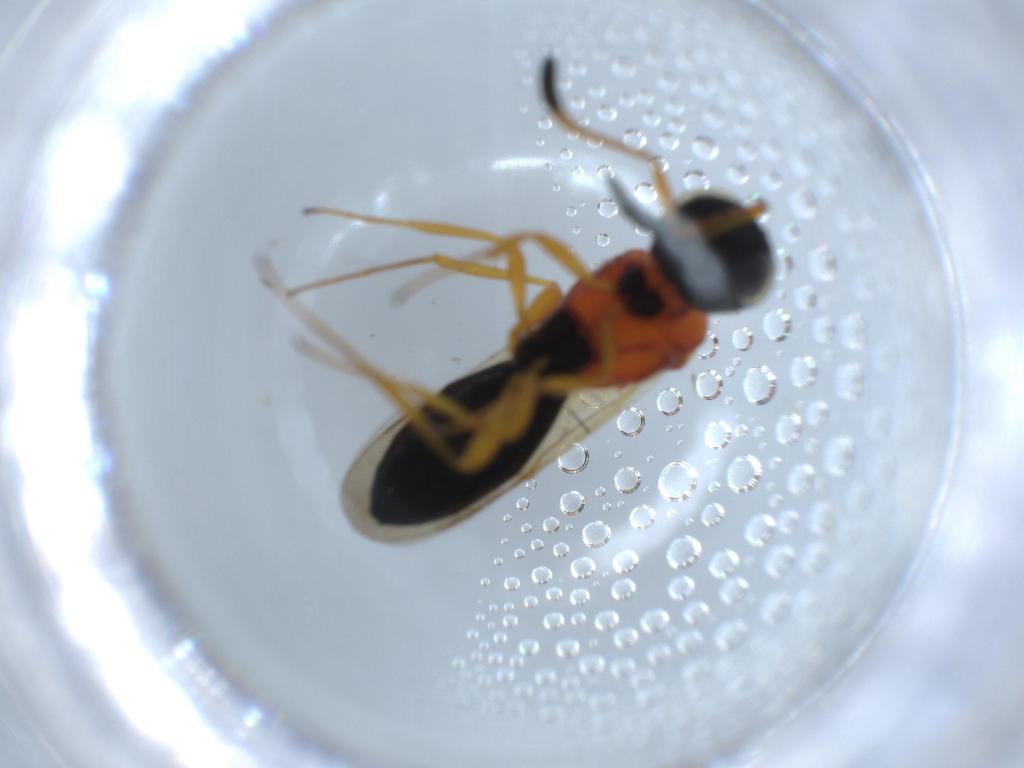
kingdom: Animalia
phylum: Arthropoda
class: Insecta
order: Hymenoptera
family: Scelionidae
